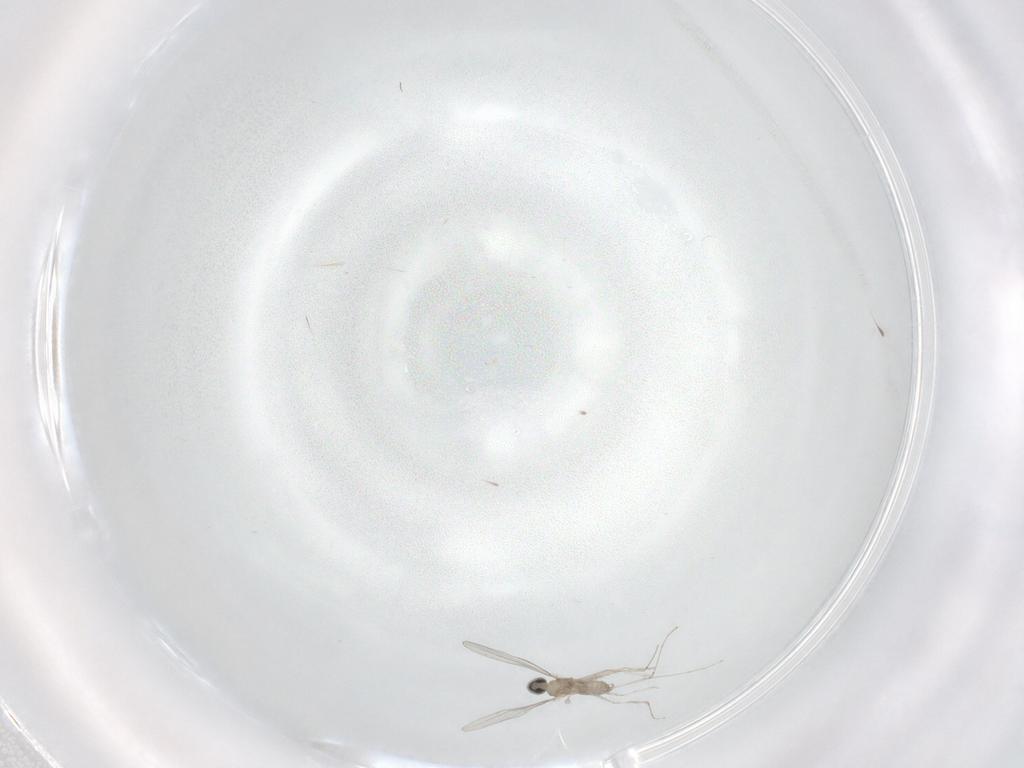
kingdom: Animalia
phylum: Arthropoda
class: Insecta
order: Diptera
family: Cecidomyiidae
